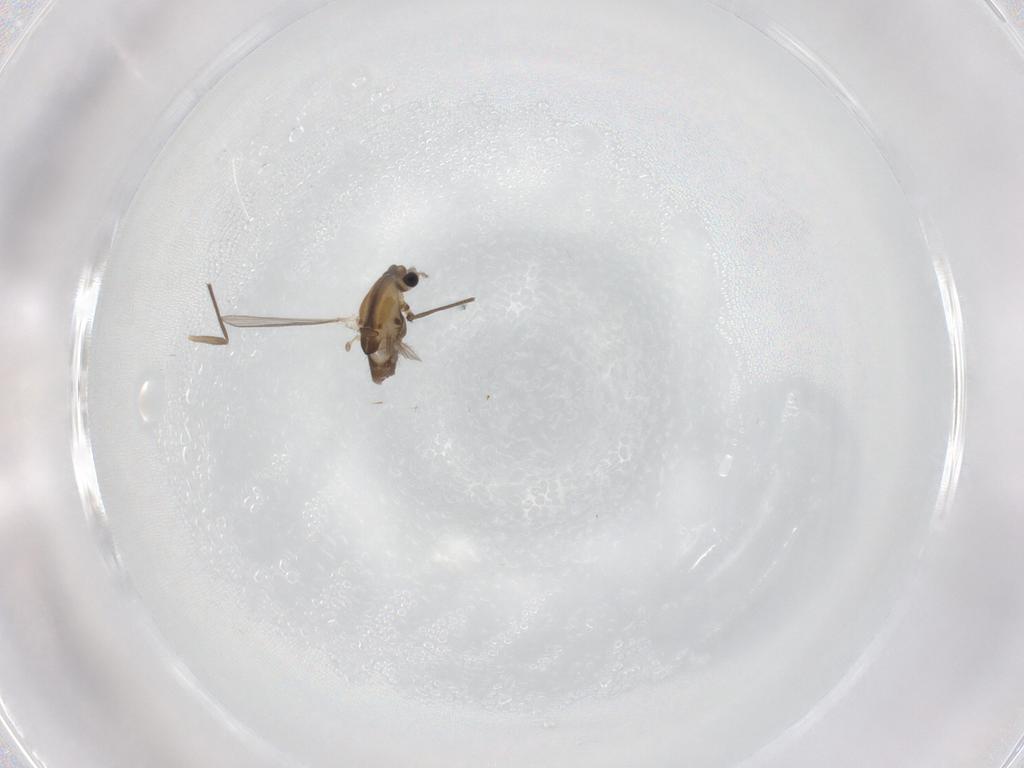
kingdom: Animalia
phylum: Arthropoda
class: Insecta
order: Diptera
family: Chironomidae
